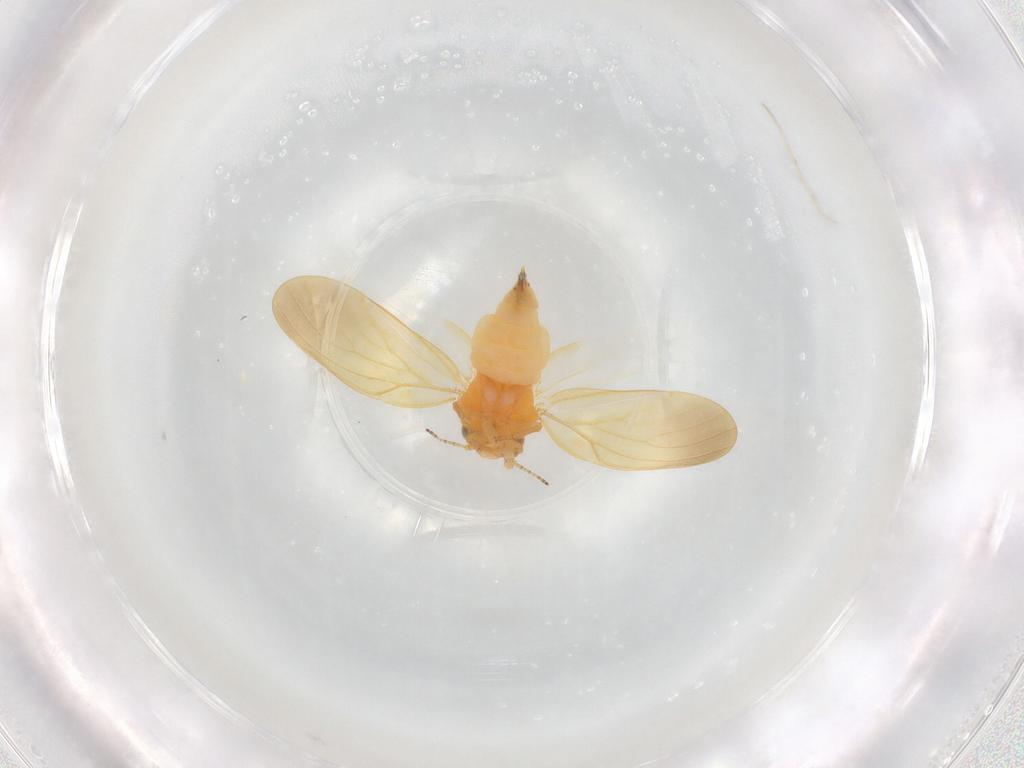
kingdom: Animalia
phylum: Arthropoda
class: Insecta
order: Hemiptera
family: Aphalaridae
